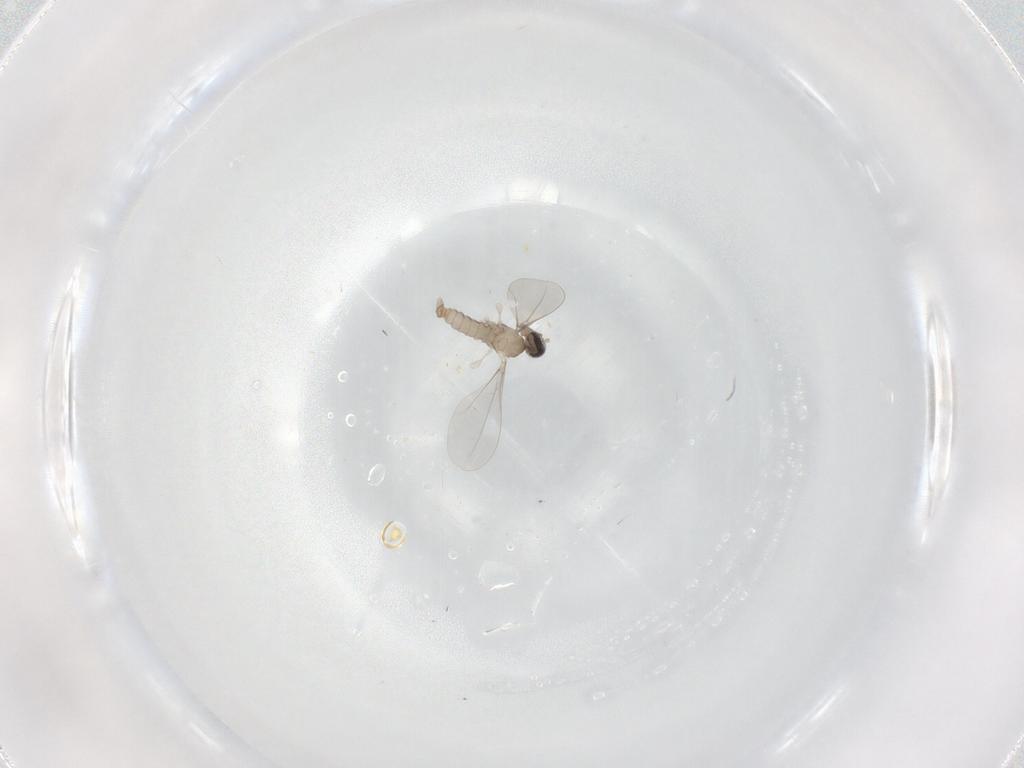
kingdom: Animalia
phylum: Arthropoda
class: Insecta
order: Diptera
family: Cecidomyiidae
